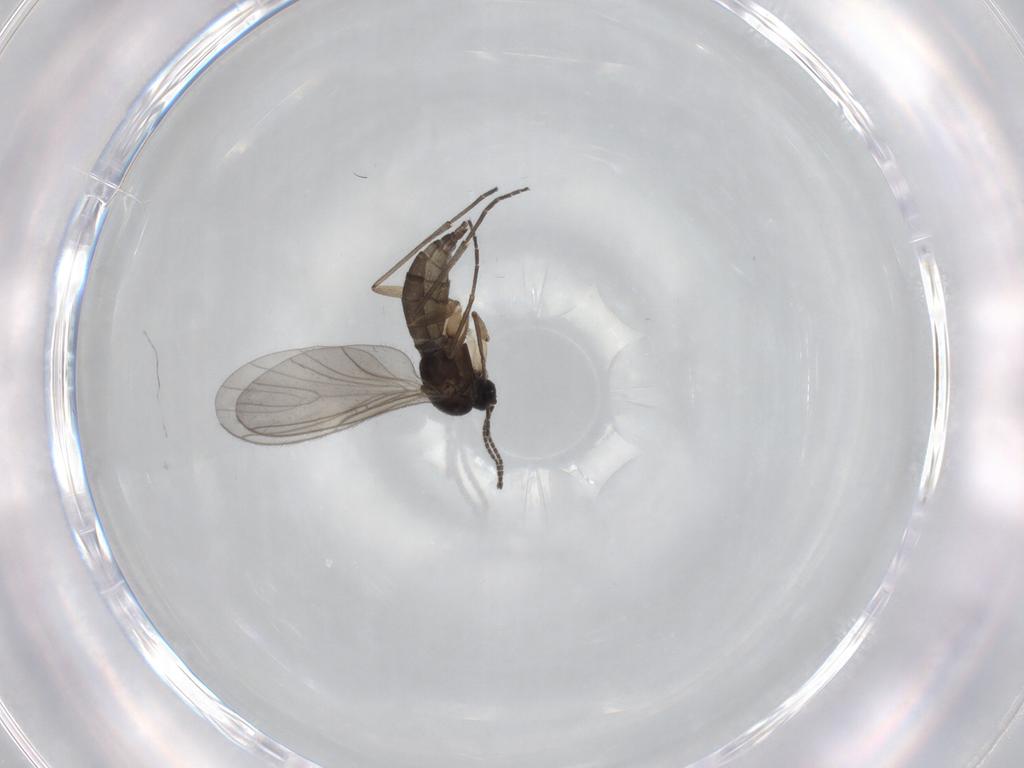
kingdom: Animalia
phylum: Arthropoda
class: Insecta
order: Diptera
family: Sciaridae
